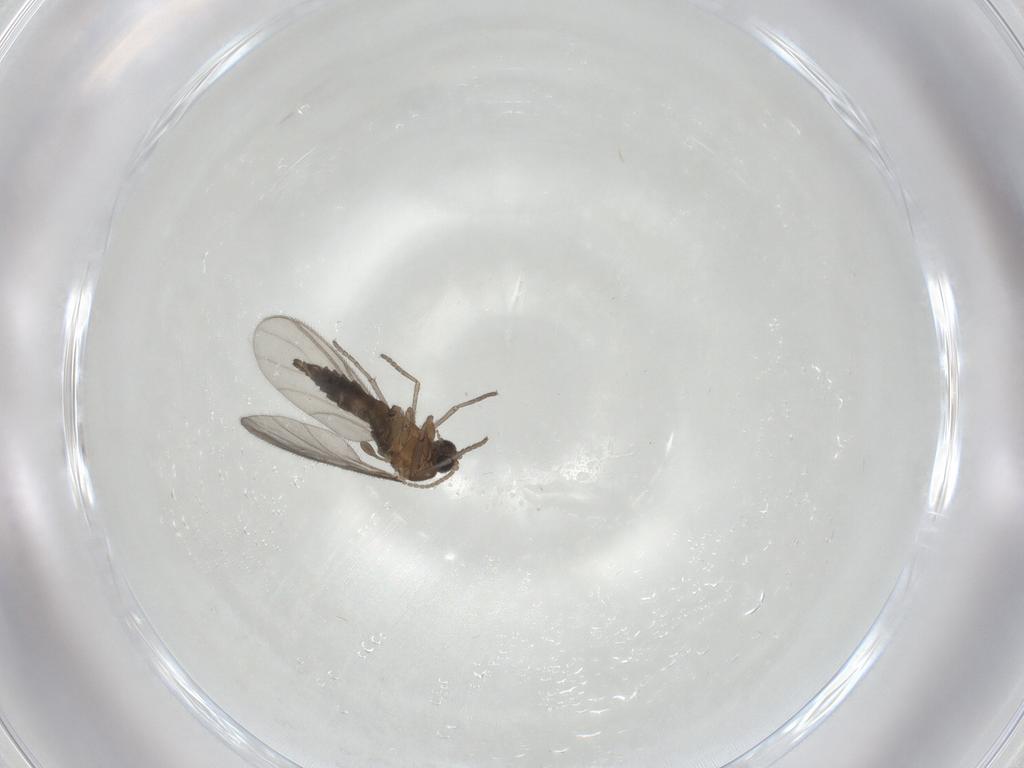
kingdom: Animalia
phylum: Arthropoda
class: Insecta
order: Diptera
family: Sciaridae
